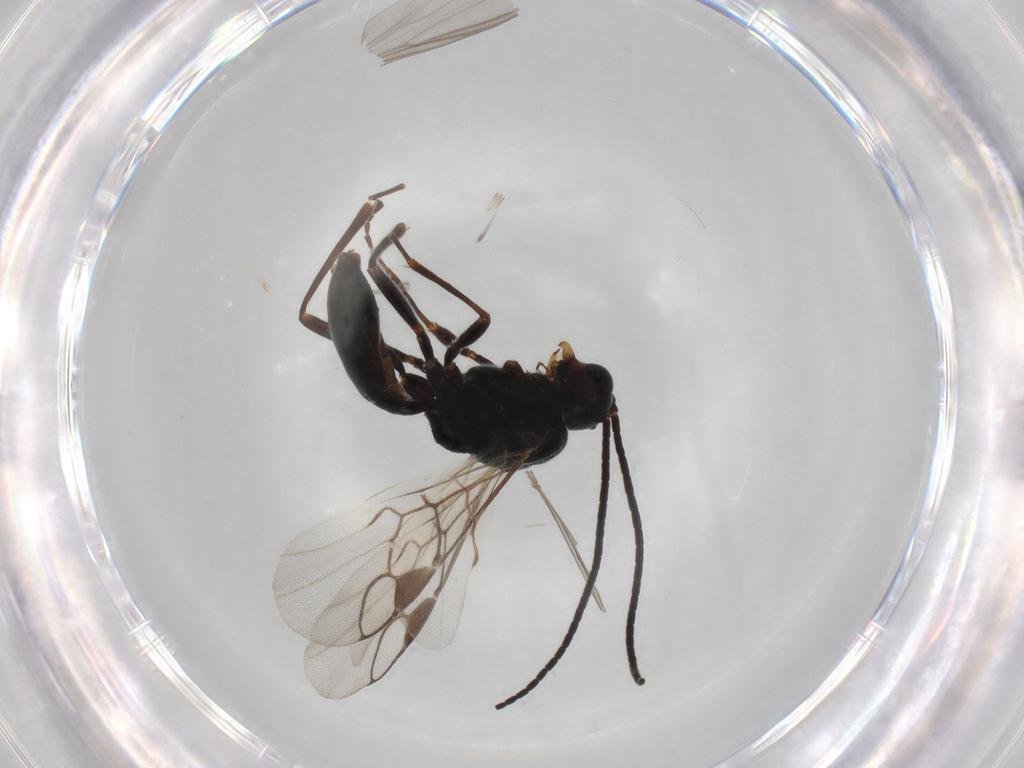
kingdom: Animalia
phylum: Arthropoda
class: Insecta
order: Hymenoptera
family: Braconidae
